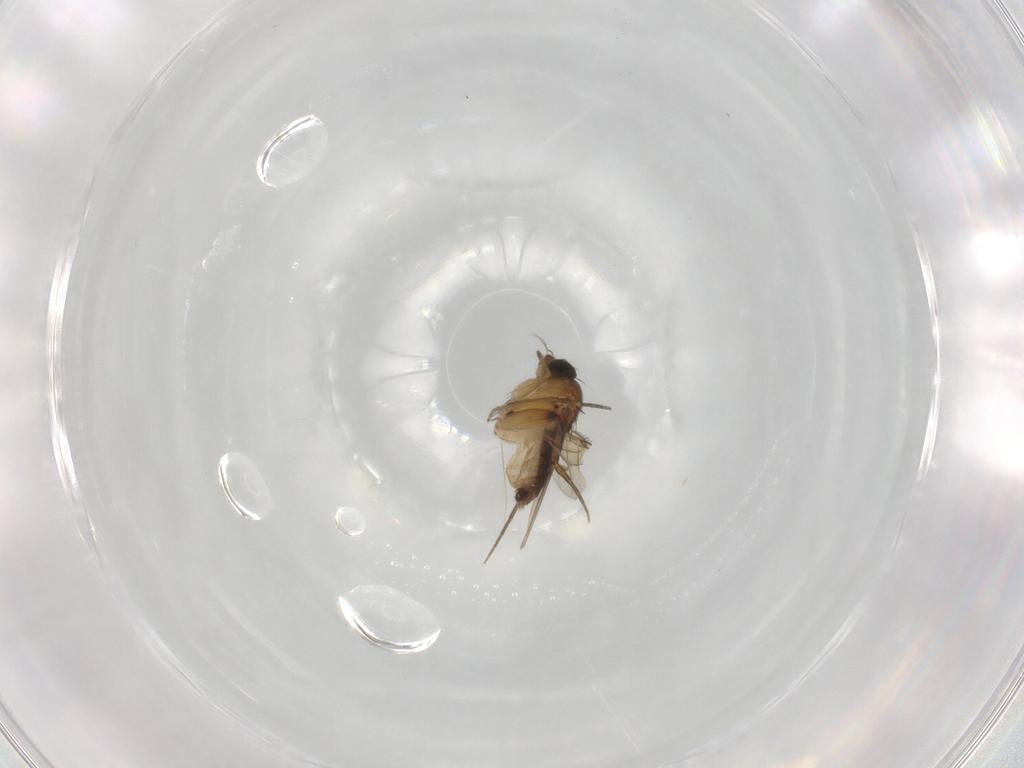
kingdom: Animalia
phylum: Arthropoda
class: Insecta
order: Diptera
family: Phoridae
